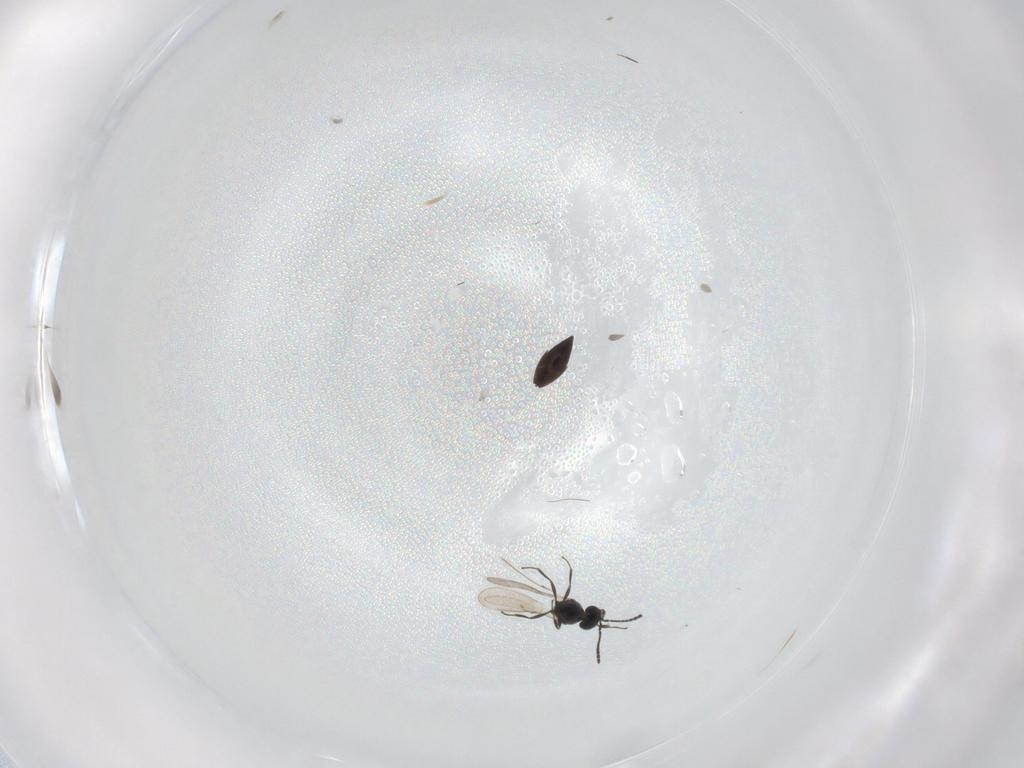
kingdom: Animalia
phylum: Arthropoda
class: Insecta
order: Hymenoptera
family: Scelionidae
